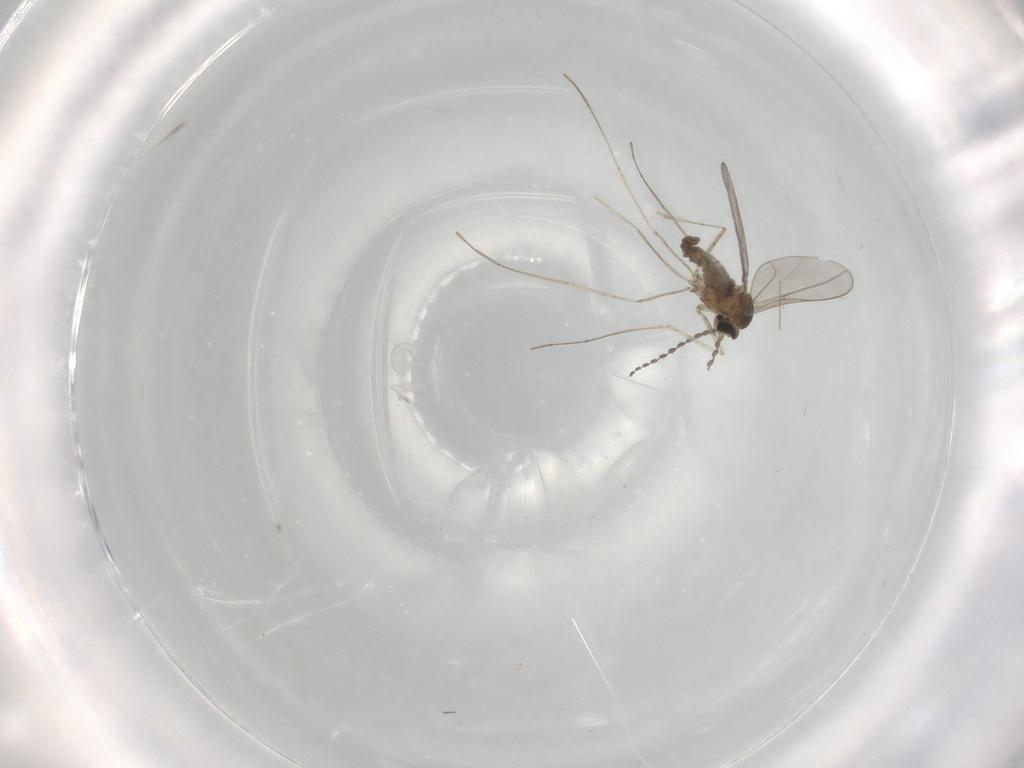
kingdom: Animalia
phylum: Arthropoda
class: Insecta
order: Diptera
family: Cecidomyiidae
